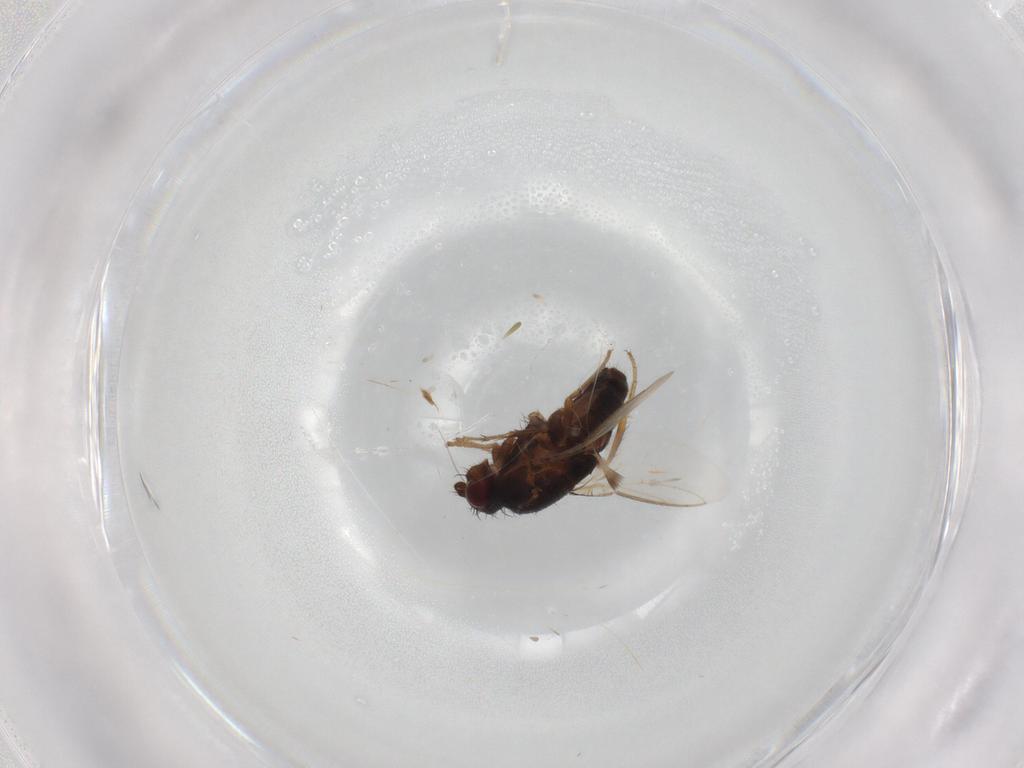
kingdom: Animalia
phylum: Arthropoda
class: Insecta
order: Diptera
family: Sphaeroceridae
